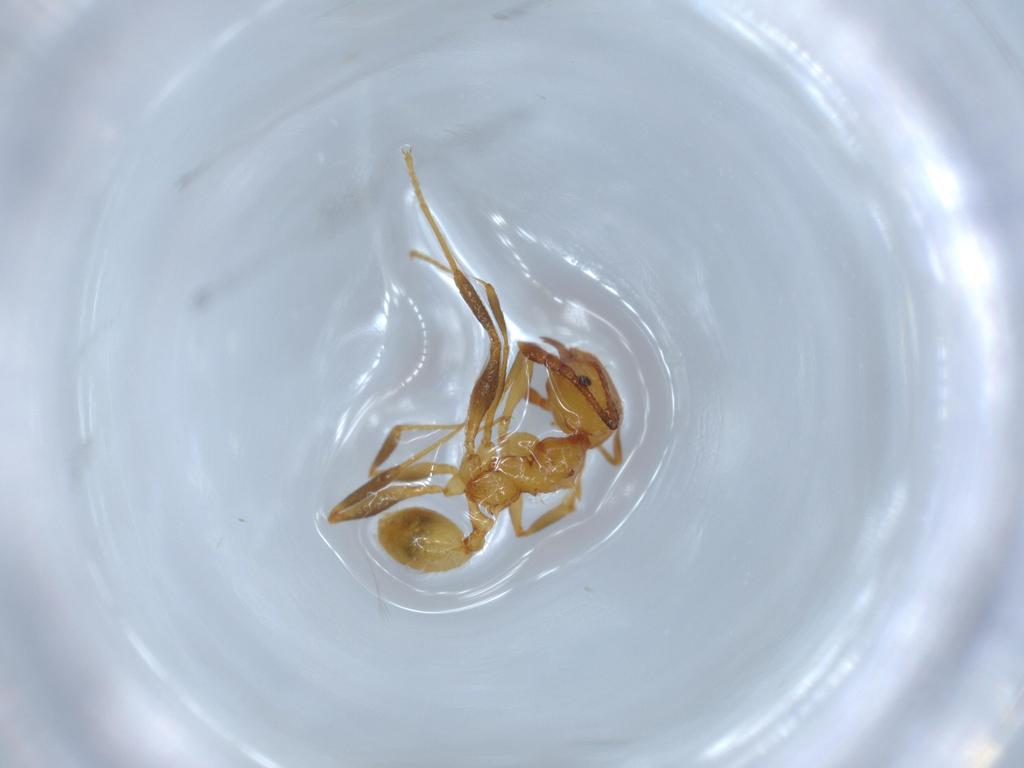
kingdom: Animalia
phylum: Arthropoda
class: Insecta
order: Hymenoptera
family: Formicidae
